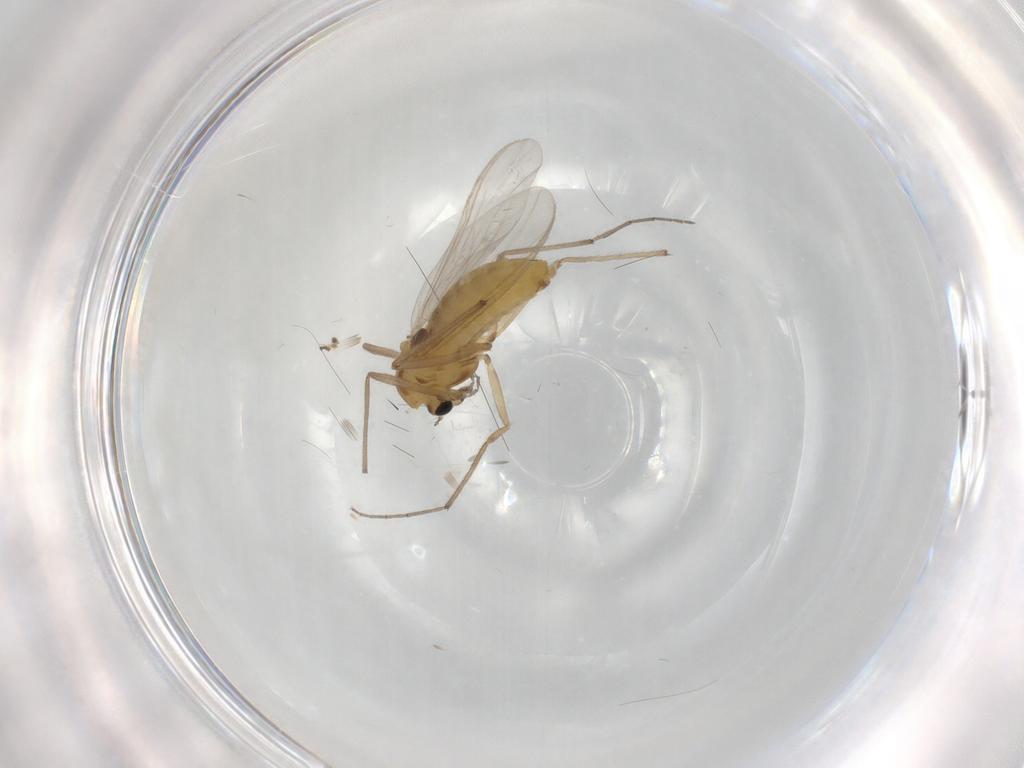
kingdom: Animalia
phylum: Arthropoda
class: Insecta
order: Diptera
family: Chironomidae
